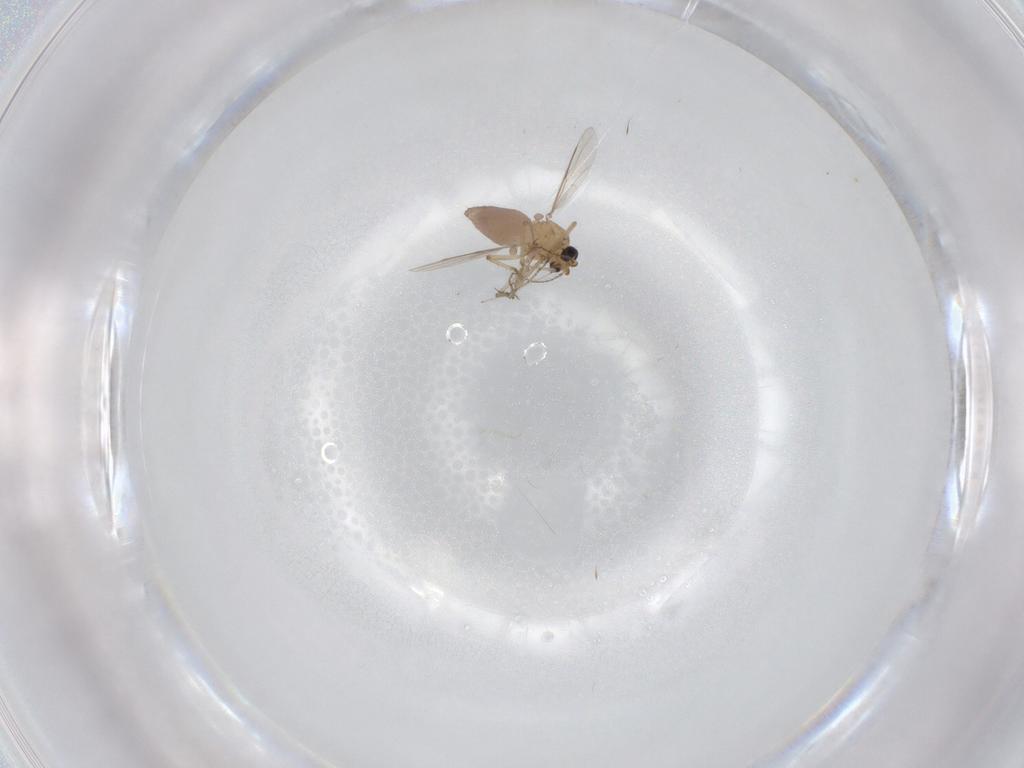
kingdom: Animalia
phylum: Arthropoda
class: Insecta
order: Diptera
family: Ceratopogonidae
